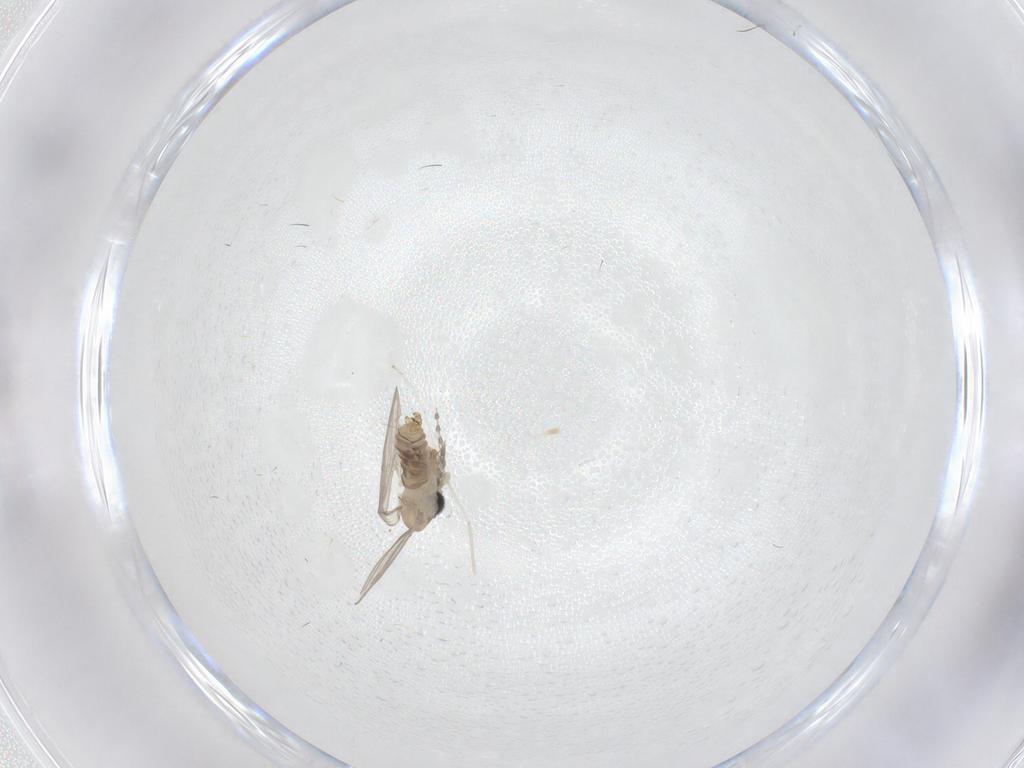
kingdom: Animalia
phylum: Arthropoda
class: Insecta
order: Diptera
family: Psychodidae
